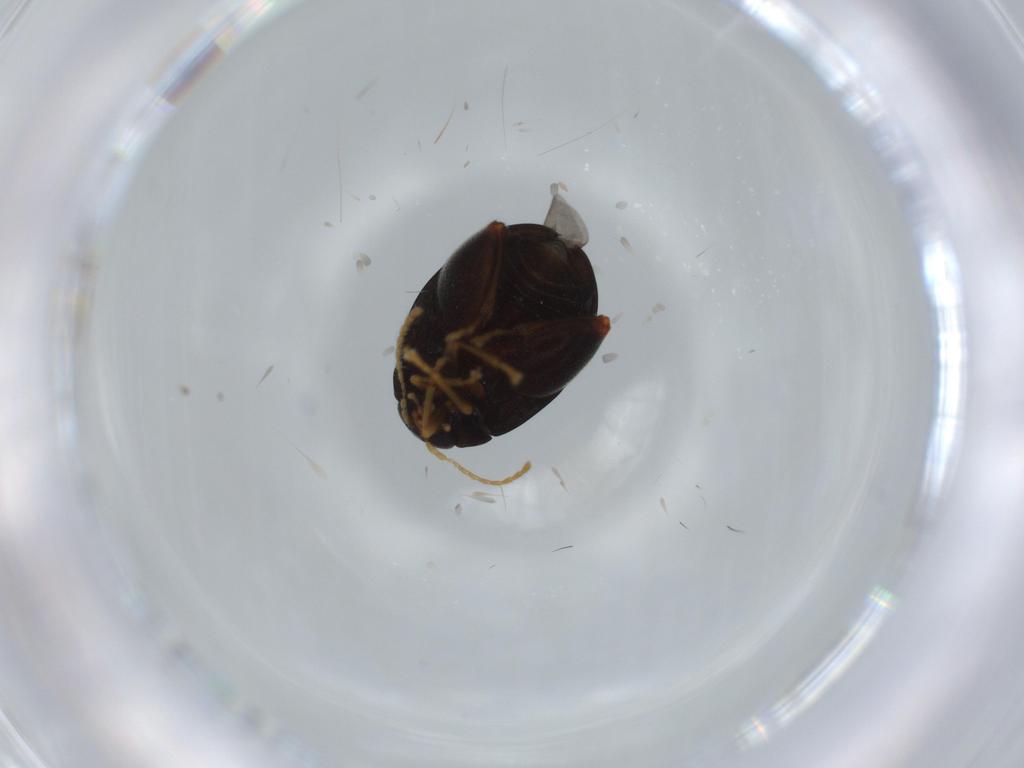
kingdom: Animalia
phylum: Arthropoda
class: Insecta
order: Coleoptera
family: Chrysomelidae
